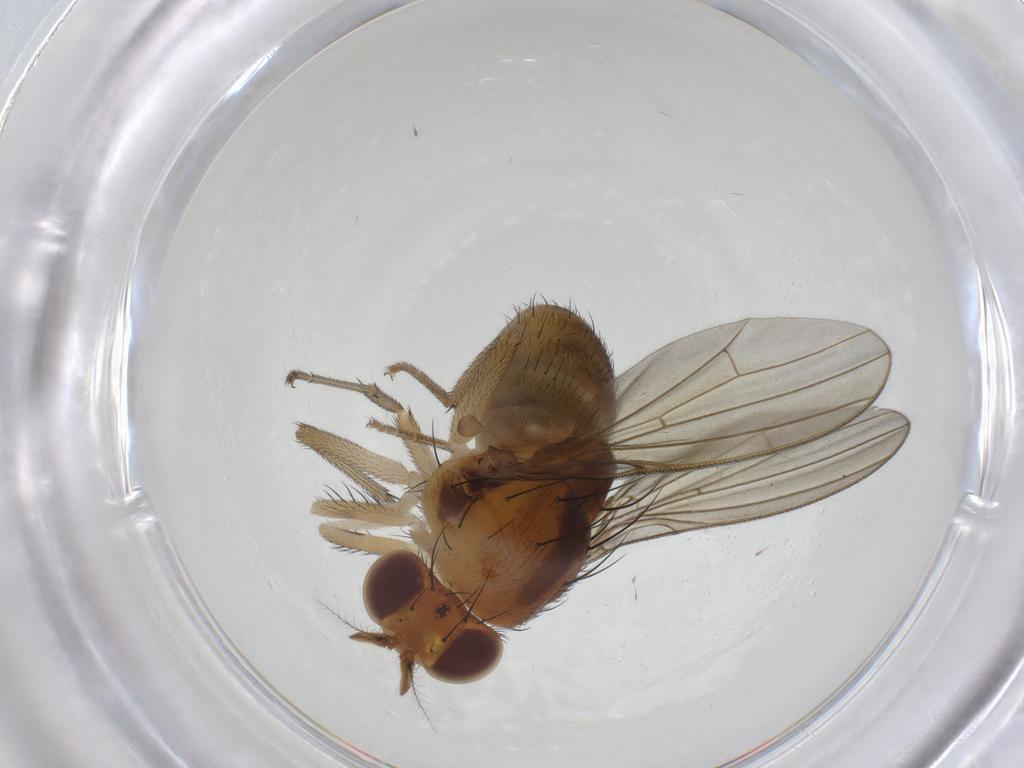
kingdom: Animalia
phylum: Arthropoda
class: Insecta
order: Diptera
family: Lauxaniidae
